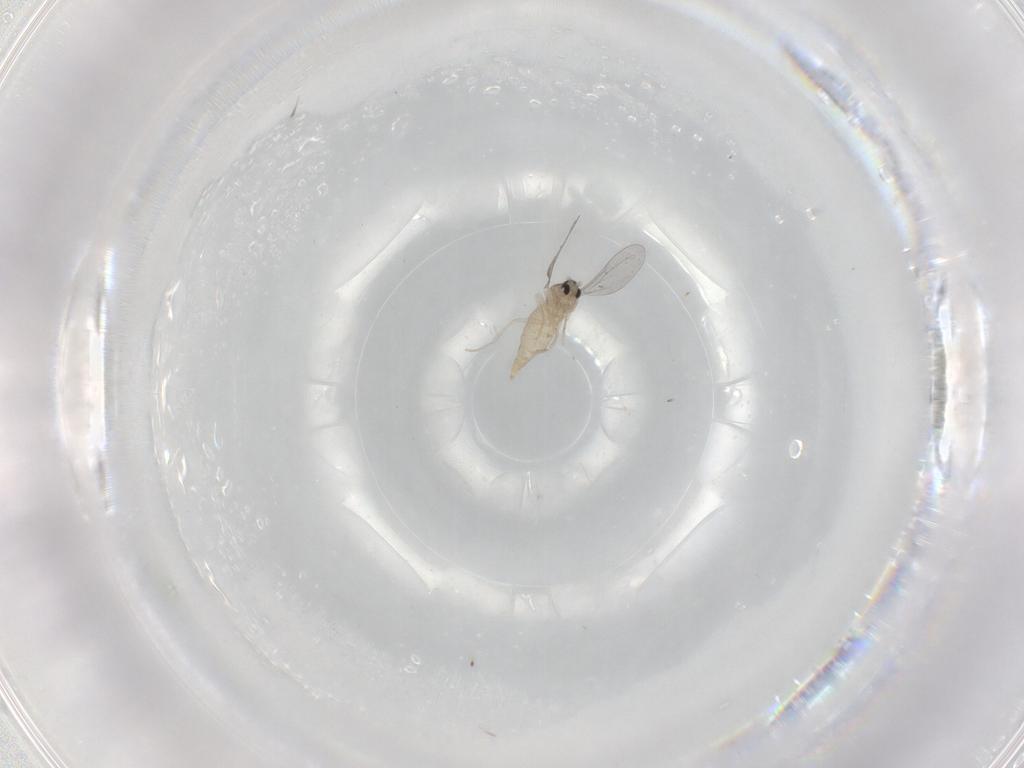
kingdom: Animalia
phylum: Arthropoda
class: Insecta
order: Diptera
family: Cecidomyiidae
